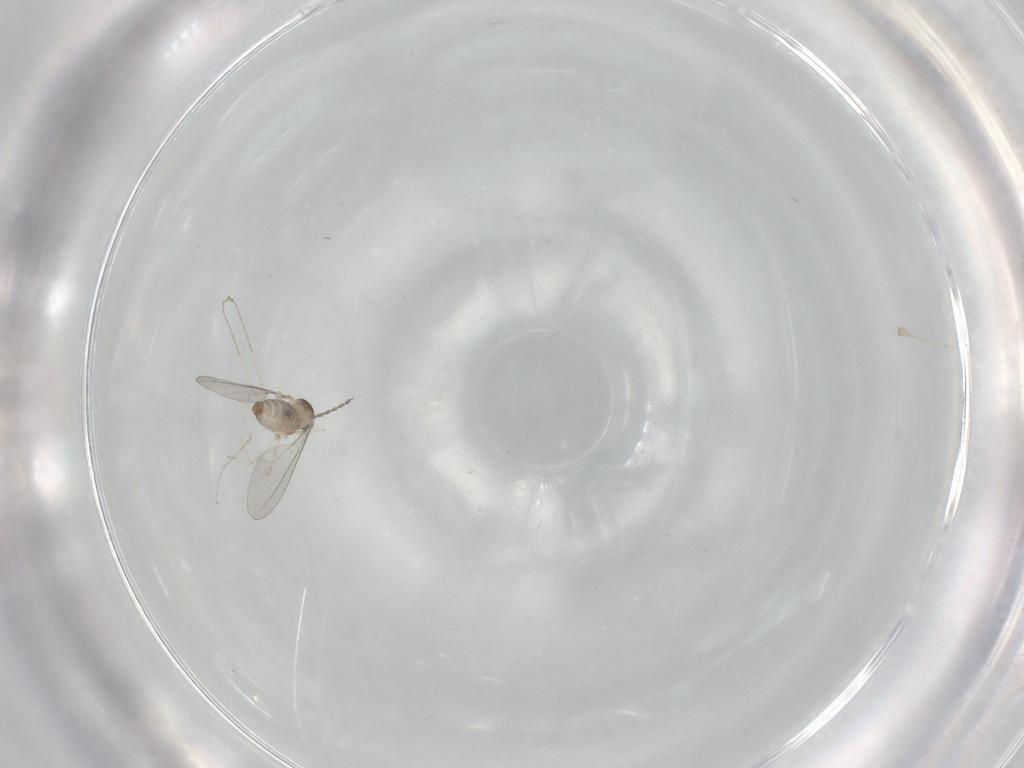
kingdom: Animalia
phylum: Arthropoda
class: Insecta
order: Diptera
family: Cecidomyiidae
